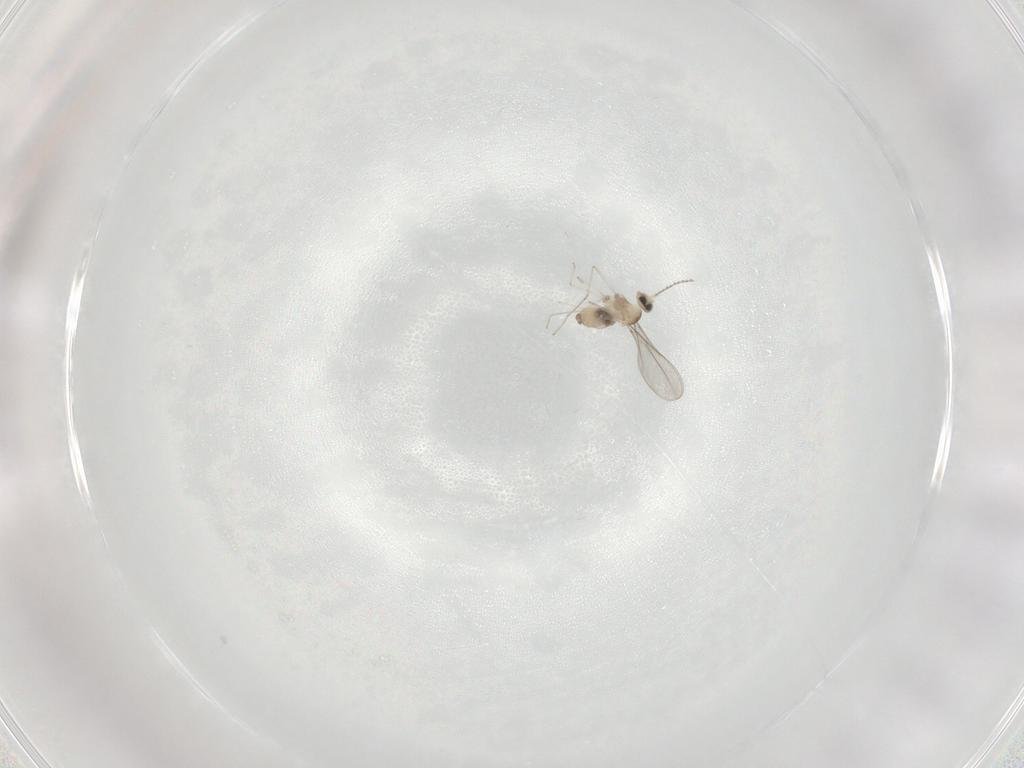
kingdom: Animalia
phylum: Arthropoda
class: Insecta
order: Diptera
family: Cecidomyiidae
